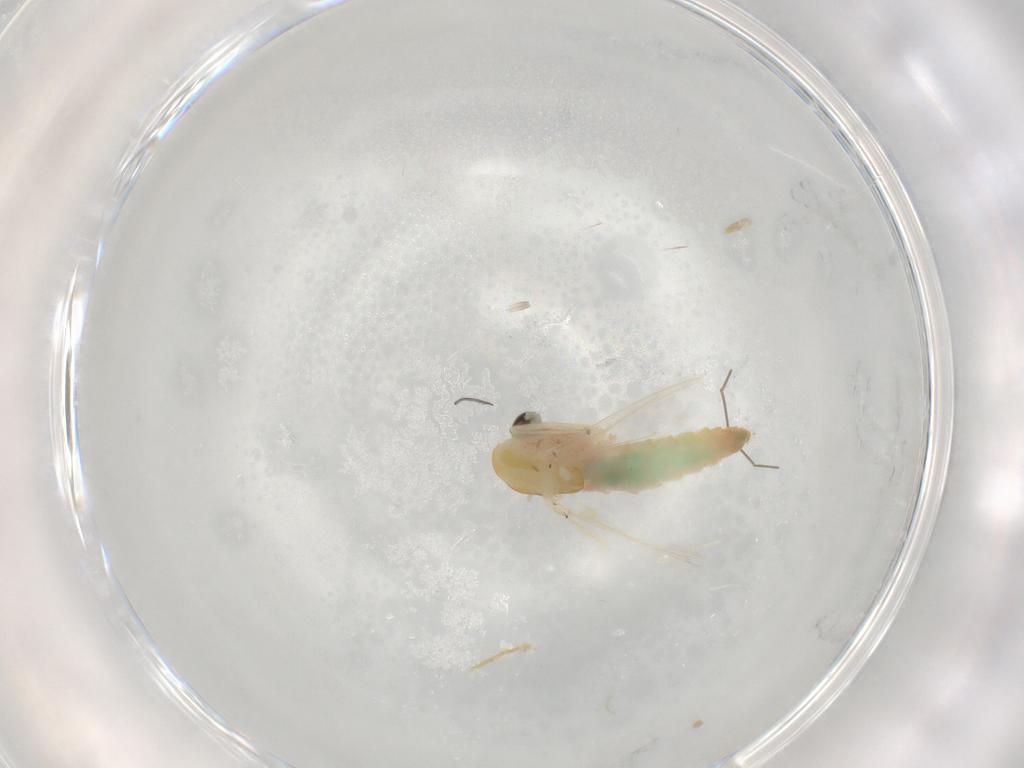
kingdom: Animalia
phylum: Arthropoda
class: Insecta
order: Diptera
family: Chironomidae
